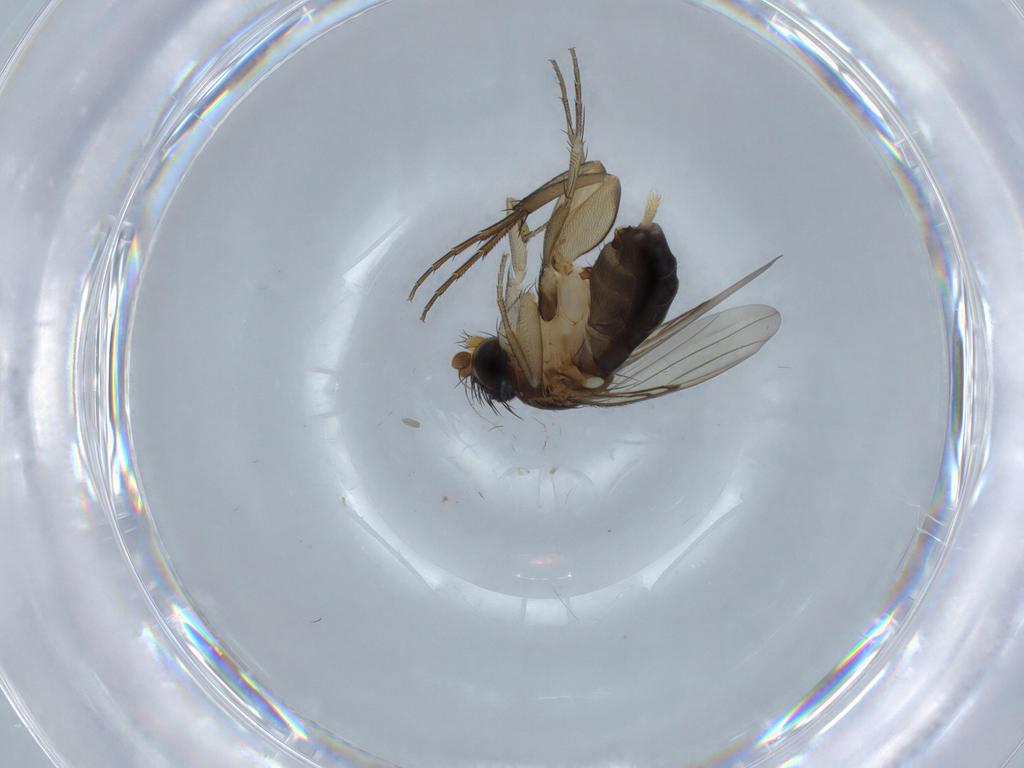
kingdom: Animalia
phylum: Arthropoda
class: Insecta
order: Diptera
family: Phoridae
